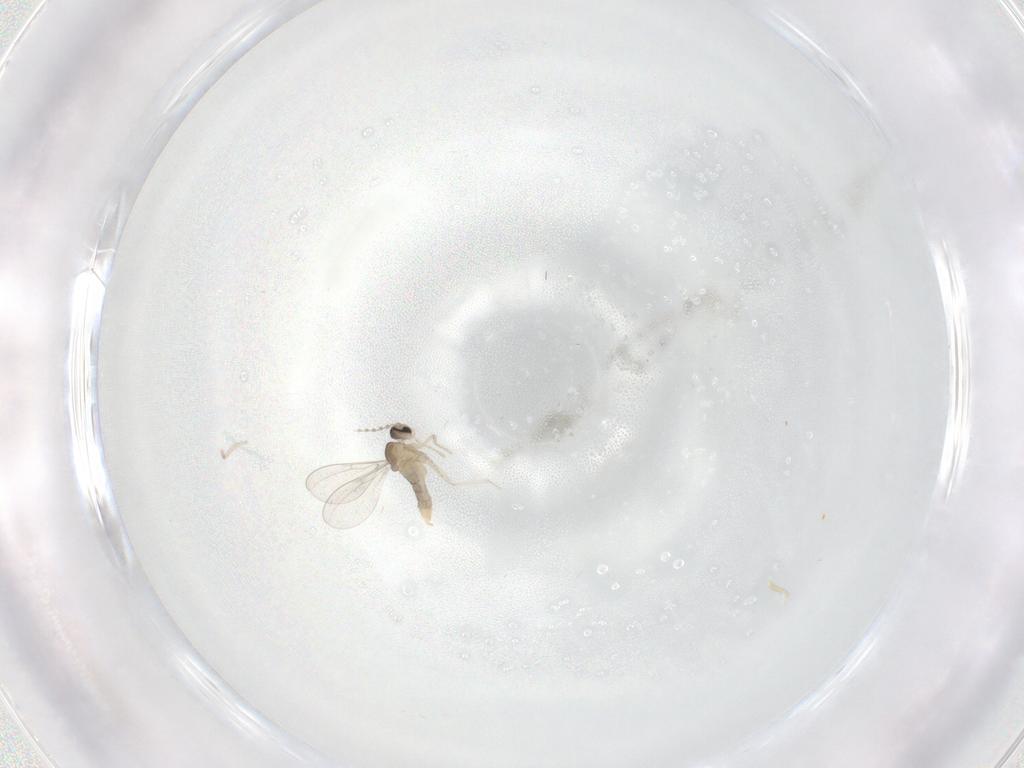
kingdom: Animalia
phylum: Arthropoda
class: Insecta
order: Diptera
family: Cecidomyiidae
